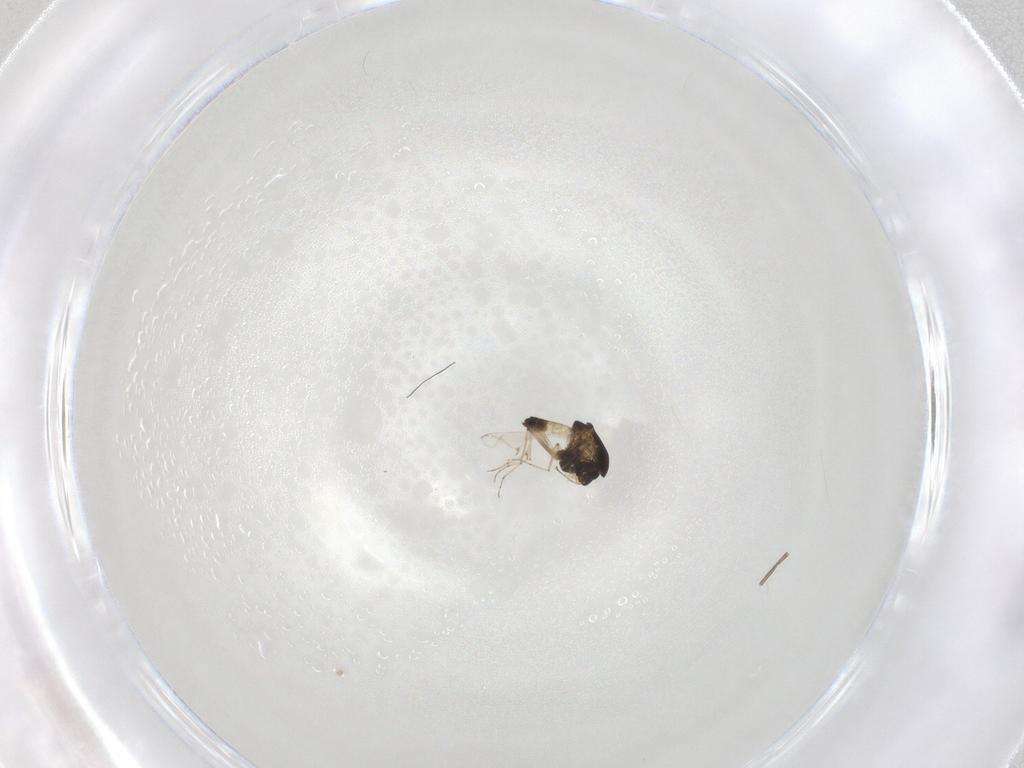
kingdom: Animalia
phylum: Arthropoda
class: Insecta
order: Diptera
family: Chironomidae
